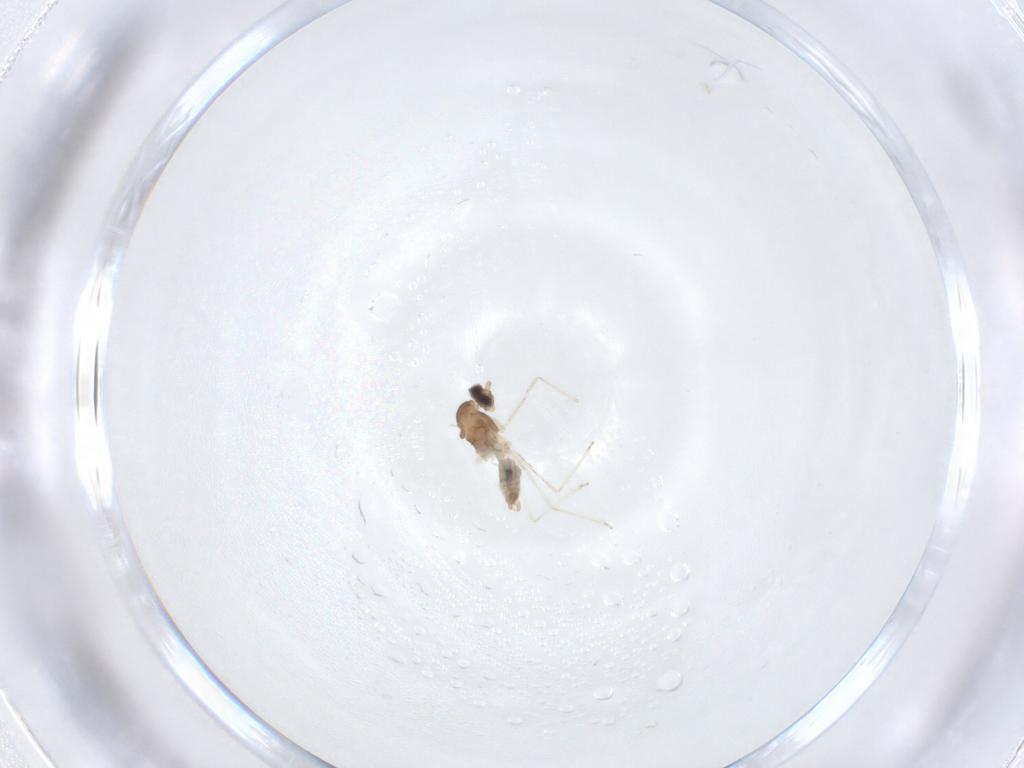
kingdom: Animalia
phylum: Arthropoda
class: Insecta
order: Diptera
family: Cecidomyiidae
